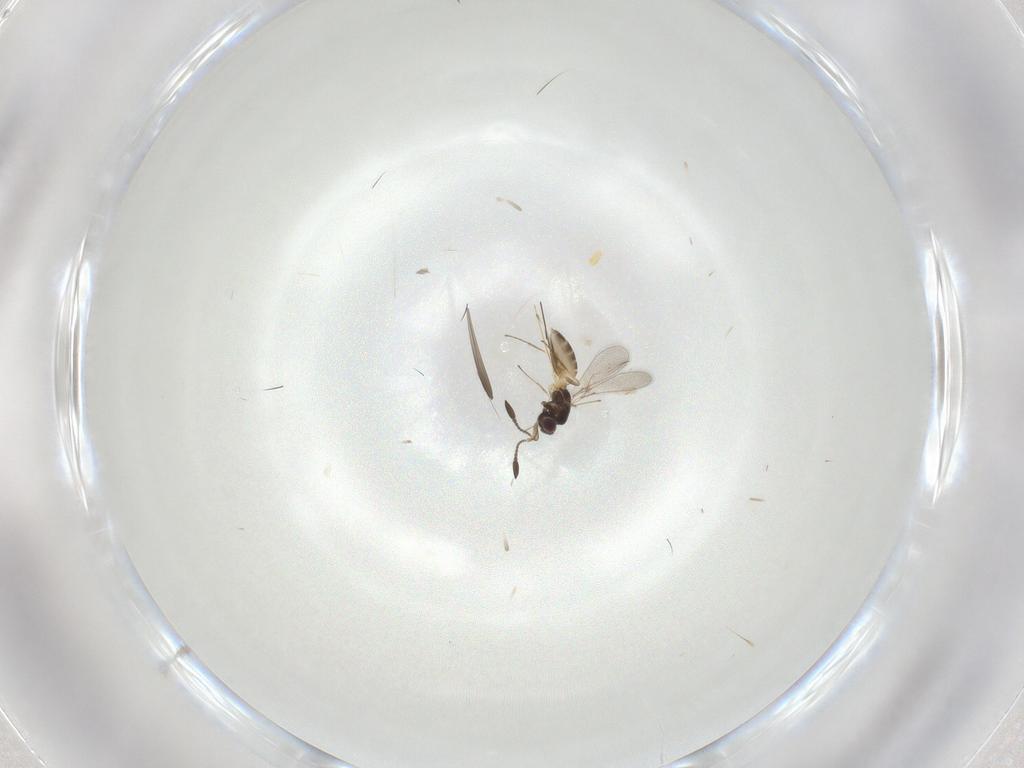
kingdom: Animalia
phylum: Arthropoda
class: Insecta
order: Hymenoptera
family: Mymaridae
